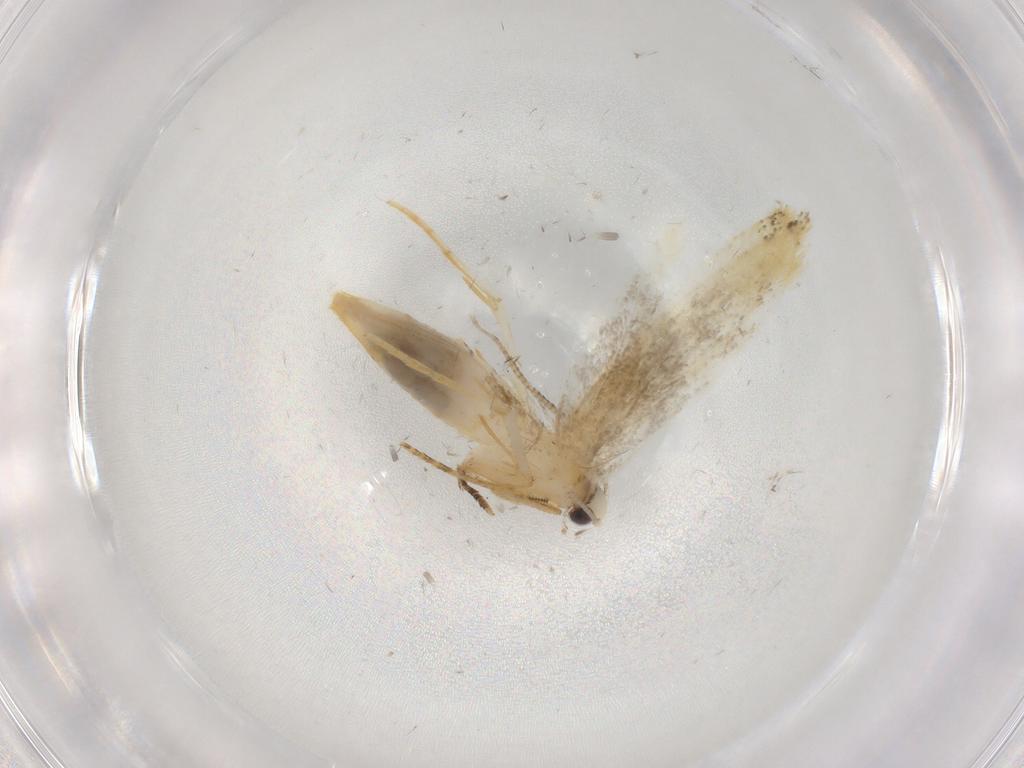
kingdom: Animalia
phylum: Arthropoda
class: Insecta
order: Lepidoptera
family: Tineidae
